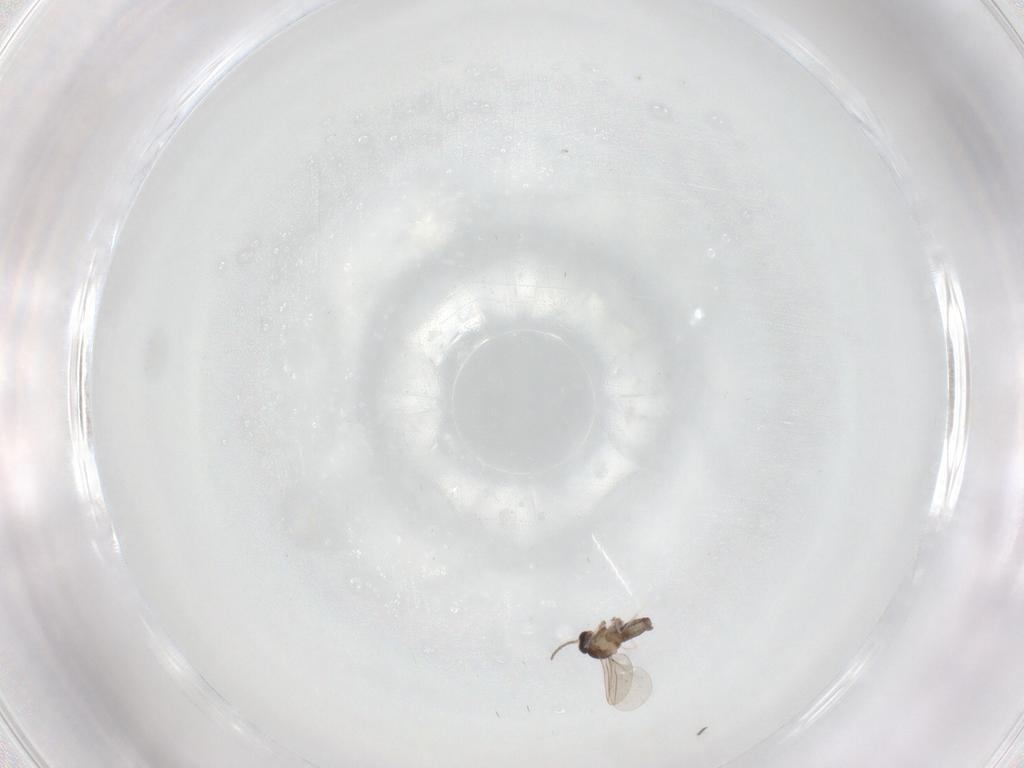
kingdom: Animalia
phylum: Arthropoda
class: Insecta
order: Diptera
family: Cecidomyiidae
